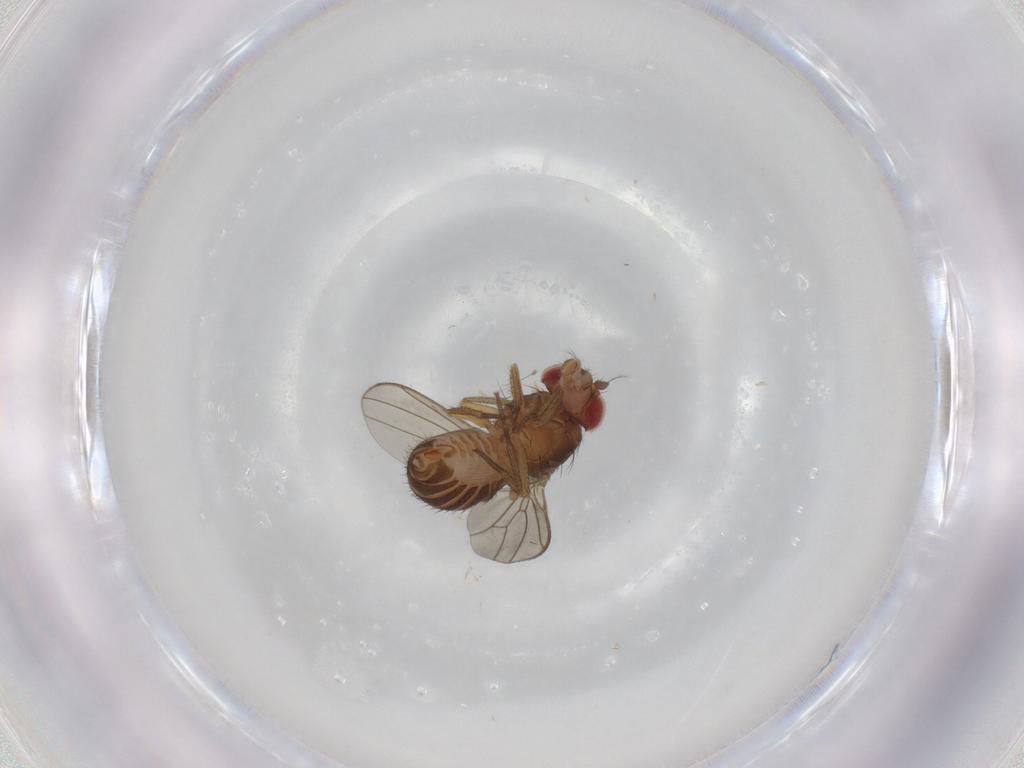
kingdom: Animalia
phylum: Arthropoda
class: Insecta
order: Diptera
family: Drosophilidae
